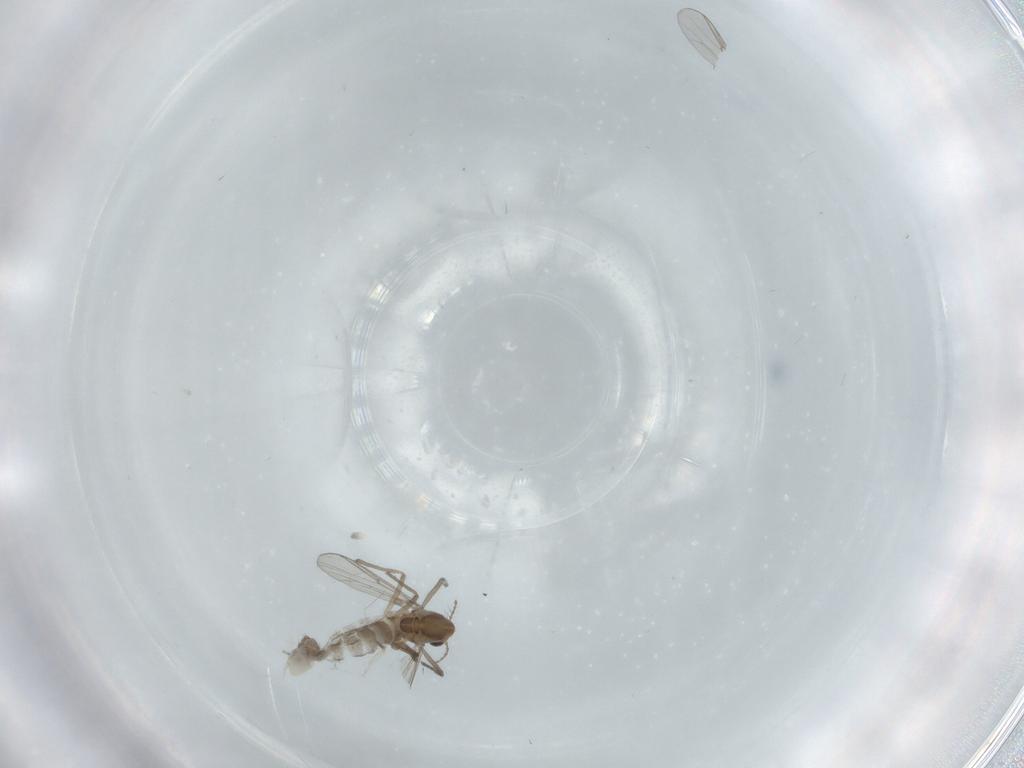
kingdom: Animalia
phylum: Arthropoda
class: Insecta
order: Diptera
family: Chironomidae
